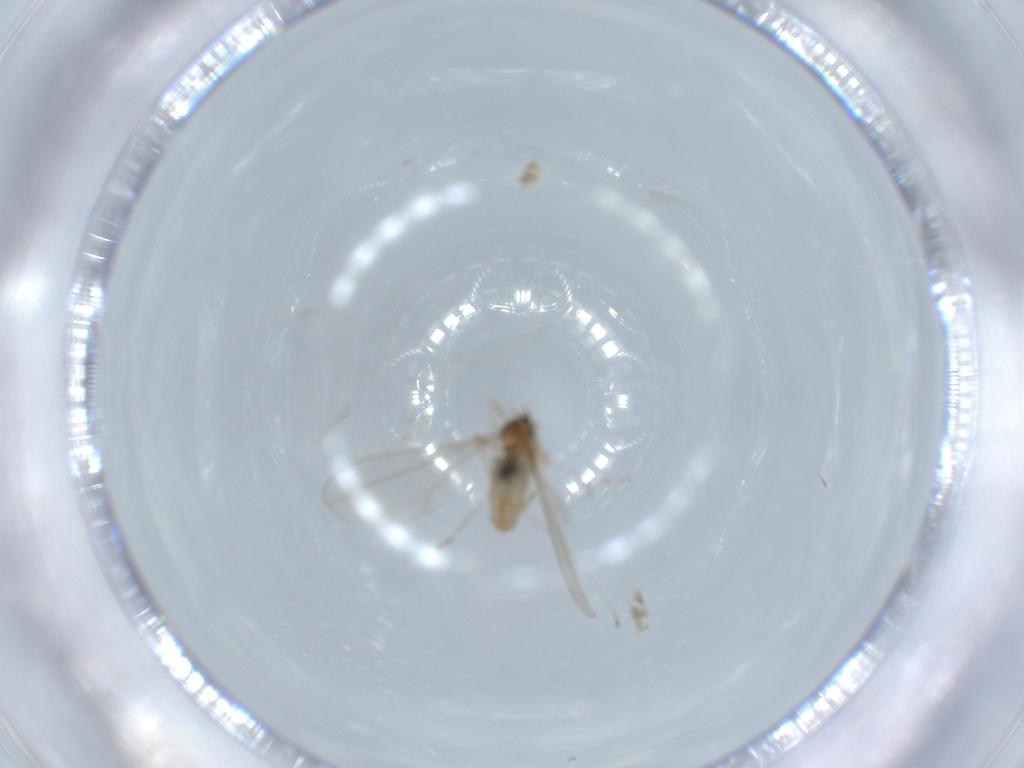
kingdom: Animalia
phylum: Arthropoda
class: Insecta
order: Diptera
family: Cecidomyiidae
